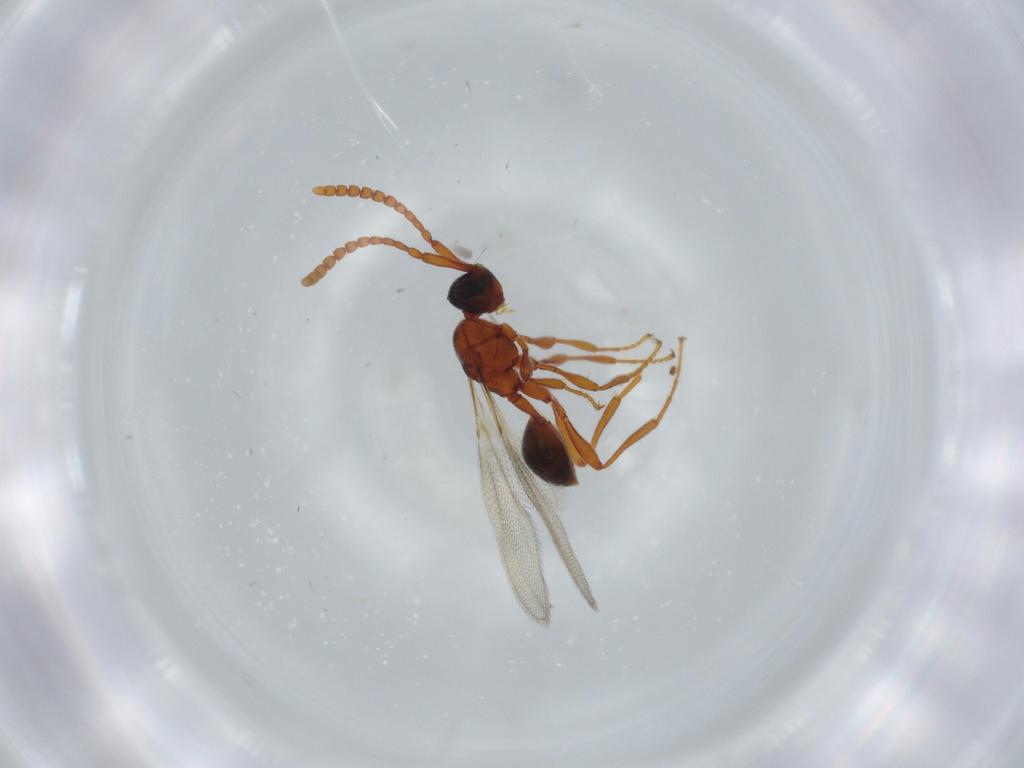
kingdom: Animalia
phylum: Arthropoda
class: Insecta
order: Hymenoptera
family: Diapriidae
